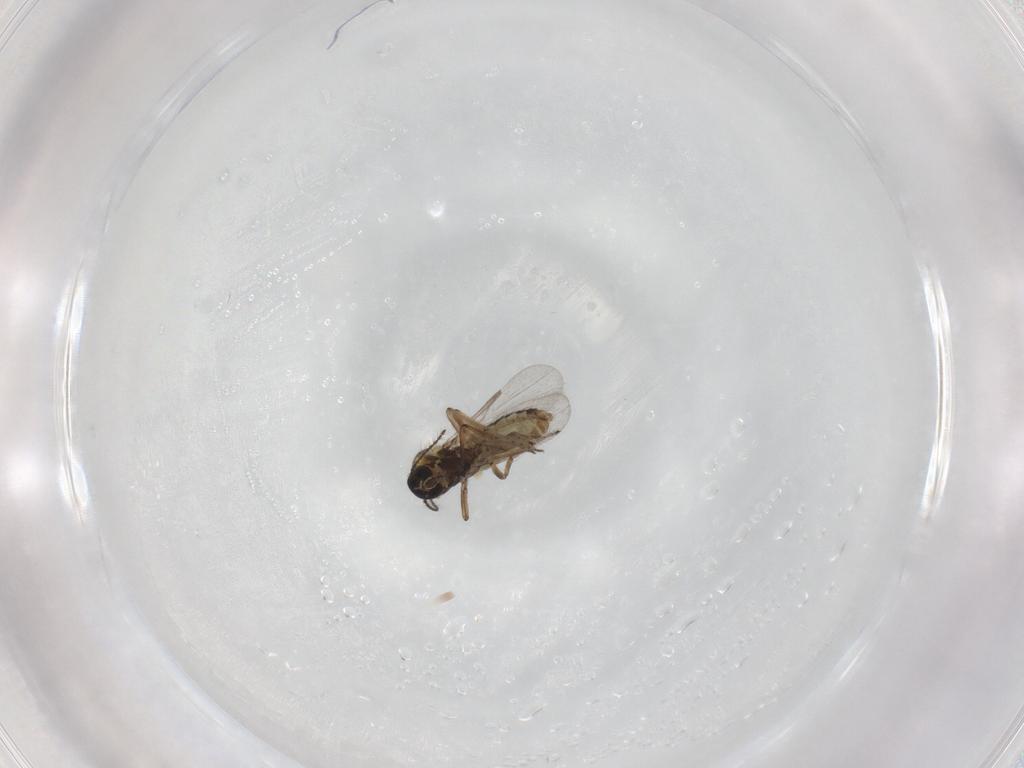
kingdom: Animalia
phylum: Arthropoda
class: Insecta
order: Diptera
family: Ceratopogonidae
